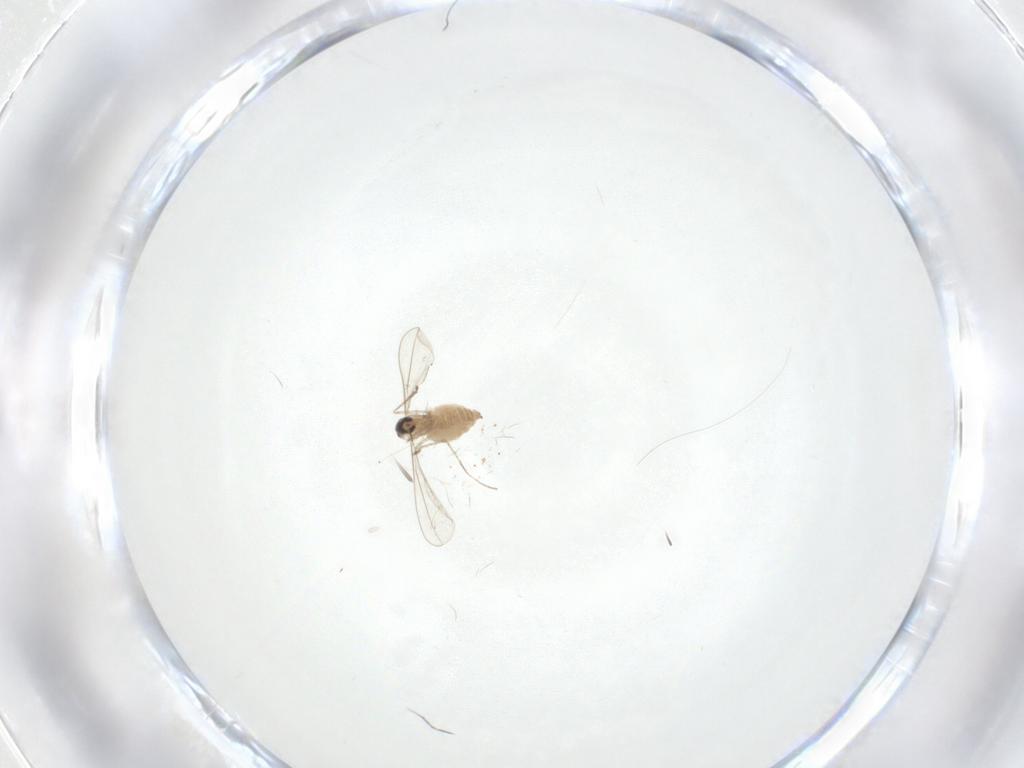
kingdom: Animalia
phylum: Arthropoda
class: Insecta
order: Diptera
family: Cecidomyiidae
